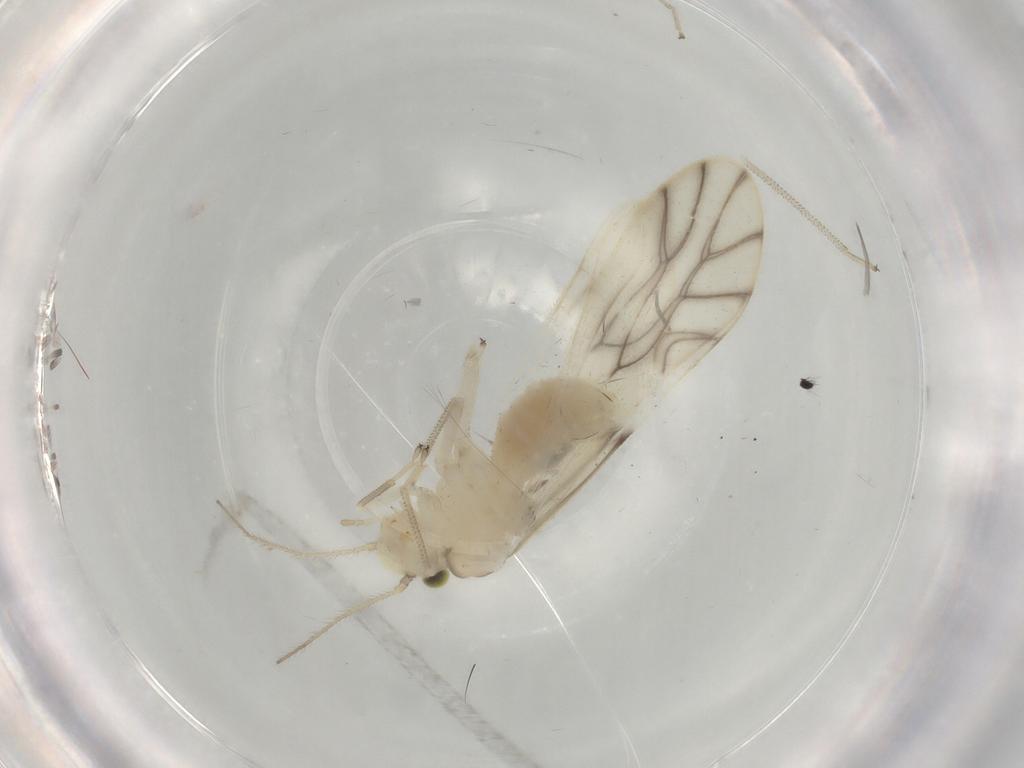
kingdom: Animalia
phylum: Arthropoda
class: Insecta
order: Psocodea
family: Caeciliusidae
